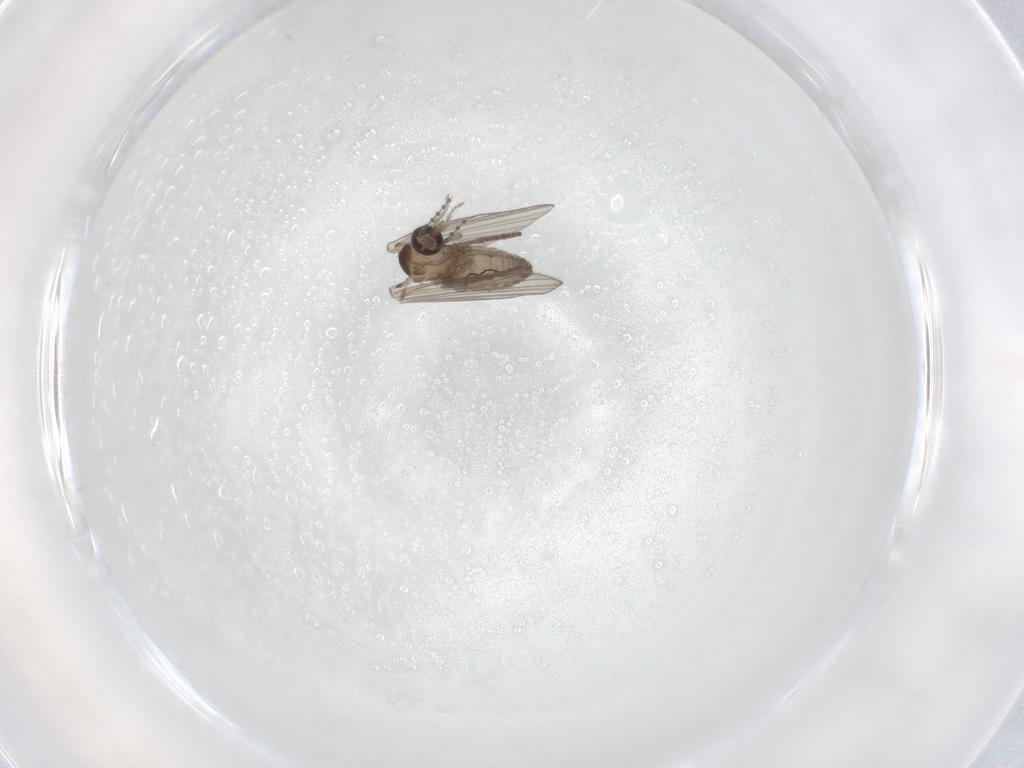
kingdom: Animalia
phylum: Arthropoda
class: Insecta
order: Diptera
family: Psychodidae
